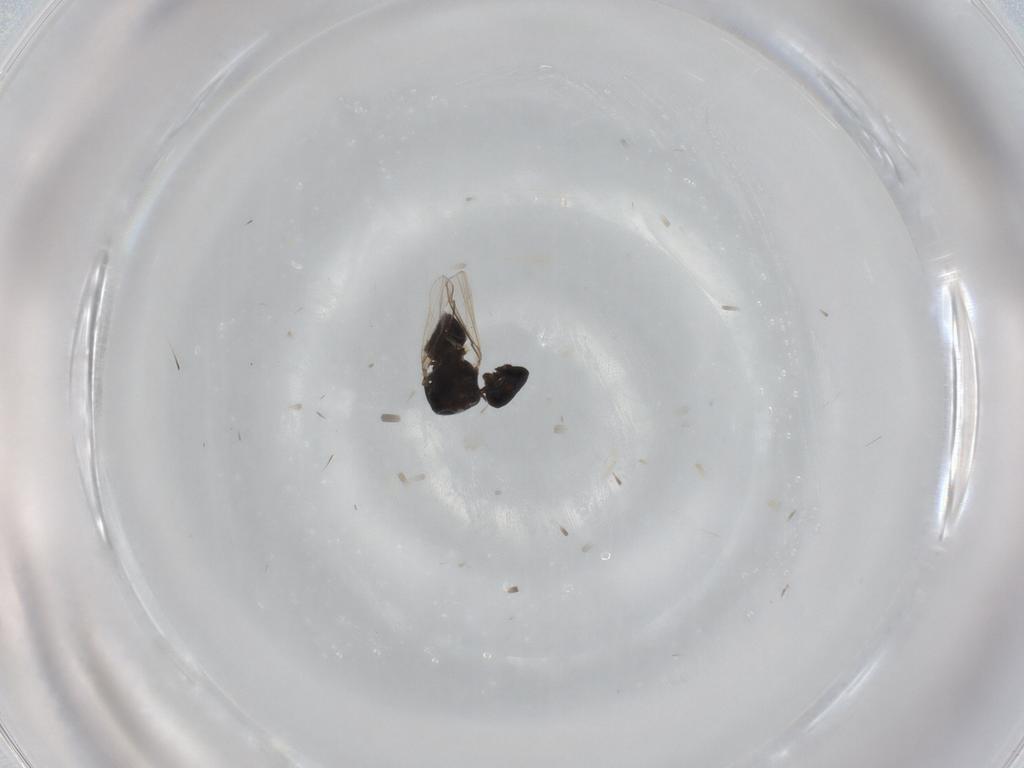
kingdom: Animalia
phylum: Arthropoda
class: Insecta
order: Diptera
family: Milichiidae
